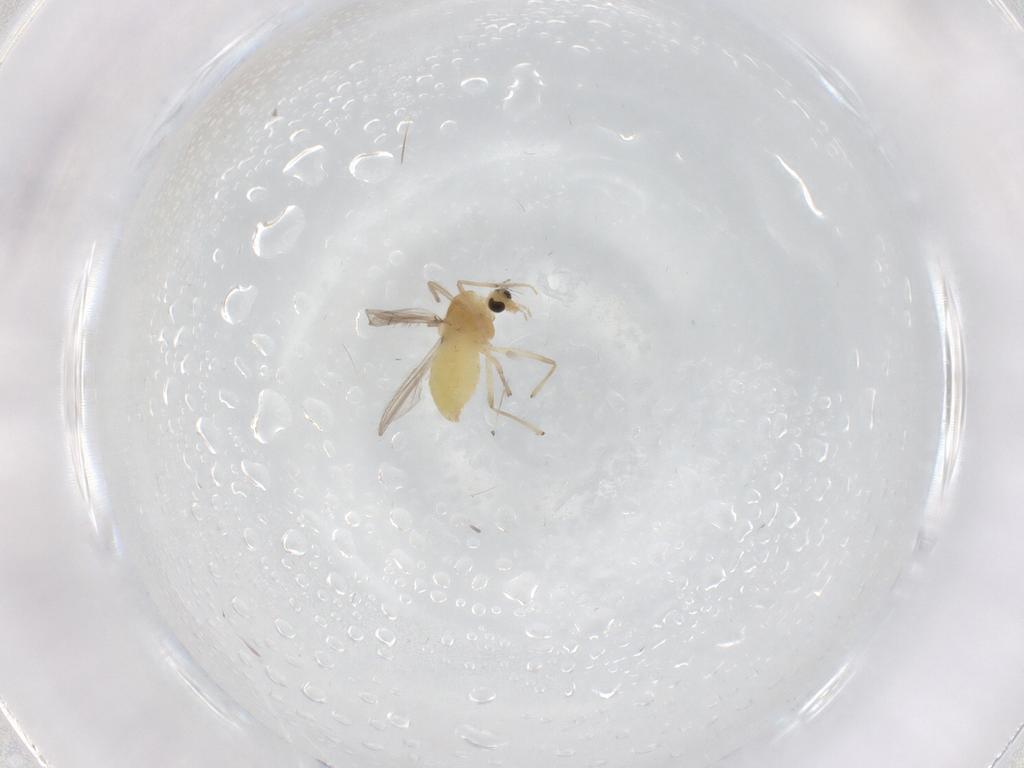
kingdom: Animalia
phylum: Arthropoda
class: Insecta
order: Diptera
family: Chironomidae
